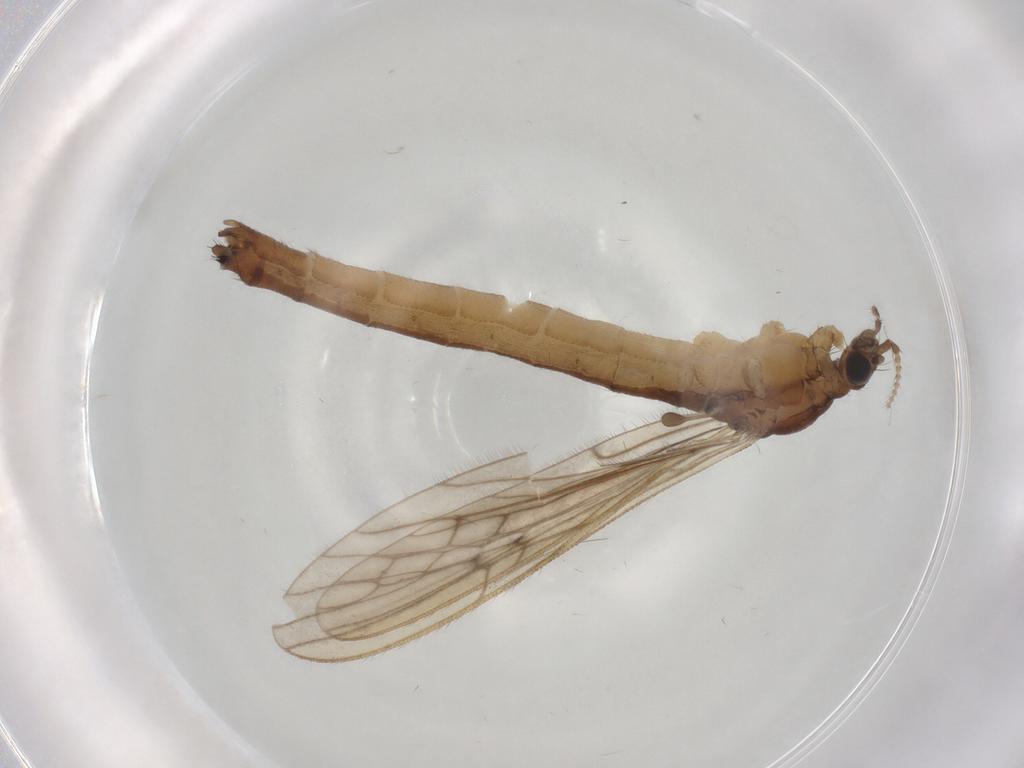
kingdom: Animalia
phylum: Arthropoda
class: Insecta
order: Diptera
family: Limoniidae
